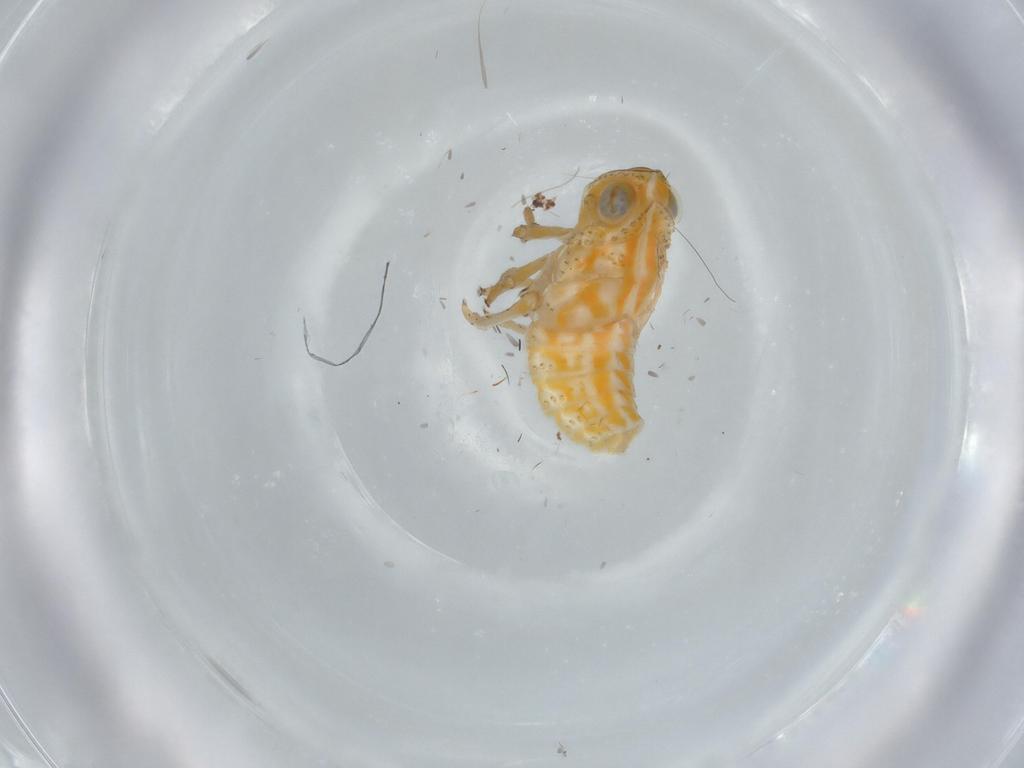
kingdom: Animalia
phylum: Arthropoda
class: Insecta
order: Hemiptera
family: Issidae
